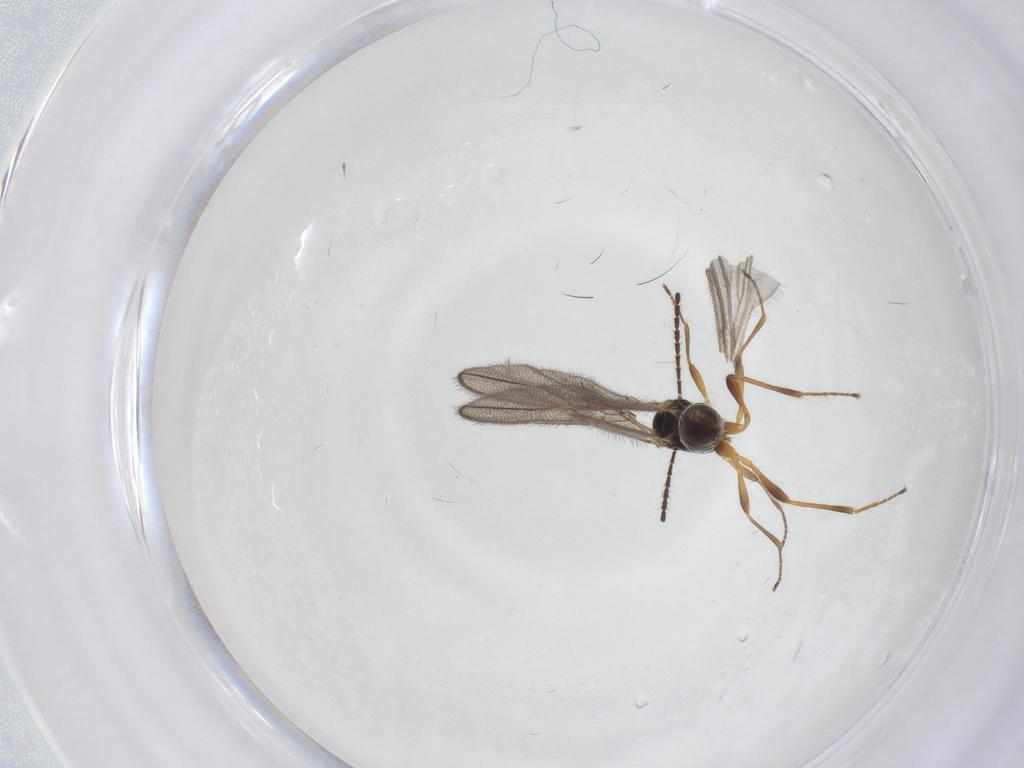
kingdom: Animalia
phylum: Arthropoda
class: Insecta
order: Hymenoptera
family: Braconidae
